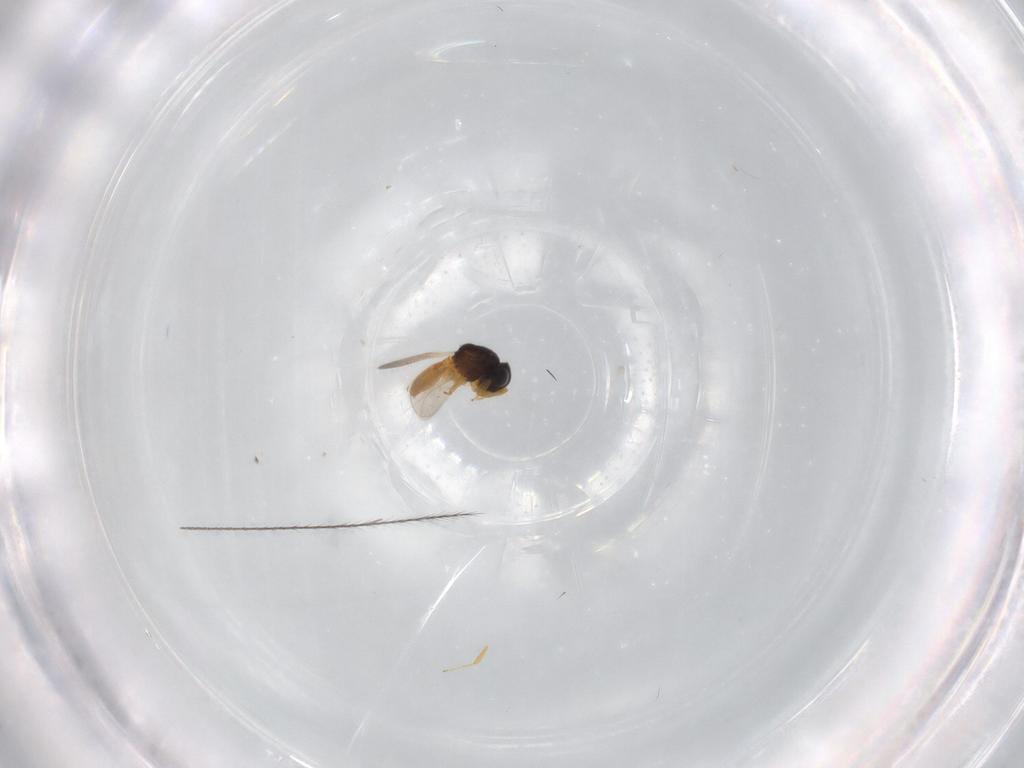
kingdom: Animalia
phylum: Arthropoda
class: Insecta
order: Hymenoptera
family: Scelionidae
